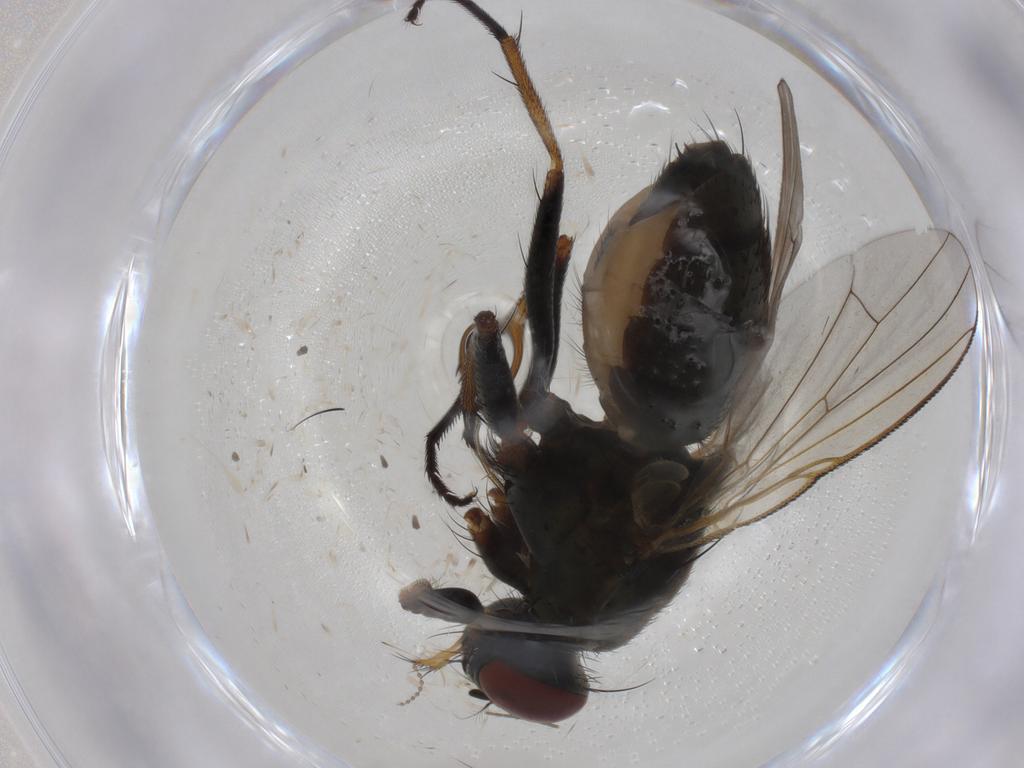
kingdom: Animalia
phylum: Arthropoda
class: Insecta
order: Diptera
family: Muscidae
